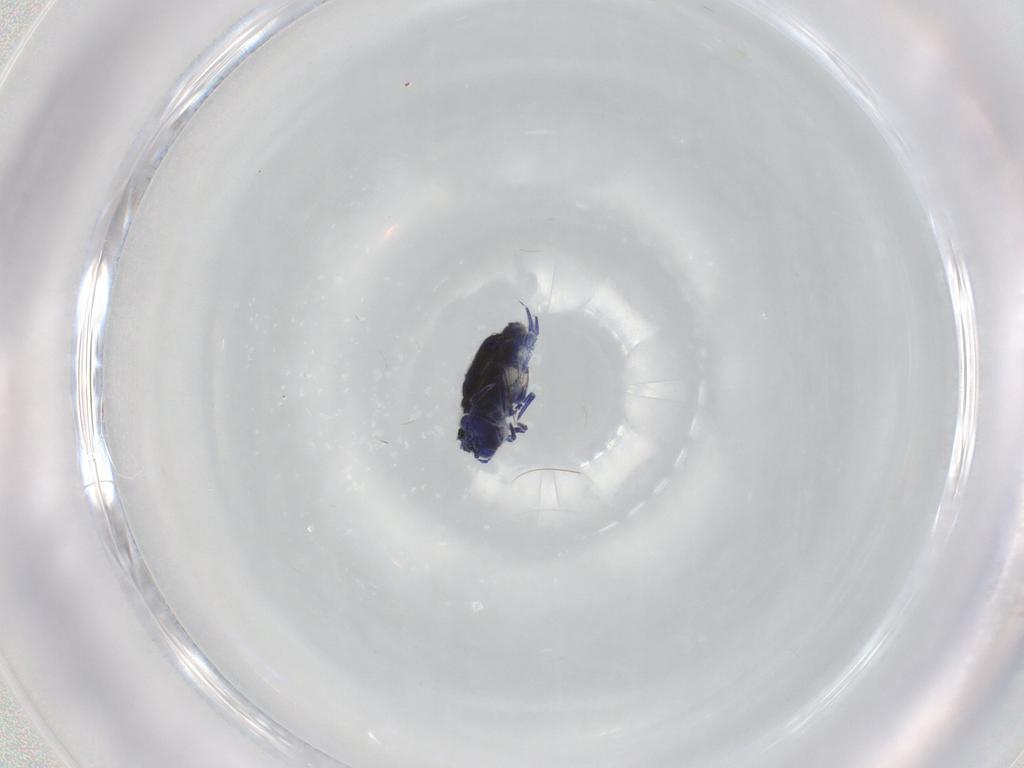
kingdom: Animalia
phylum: Arthropoda
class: Collembola
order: Symphypleona
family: Sminthurididae
